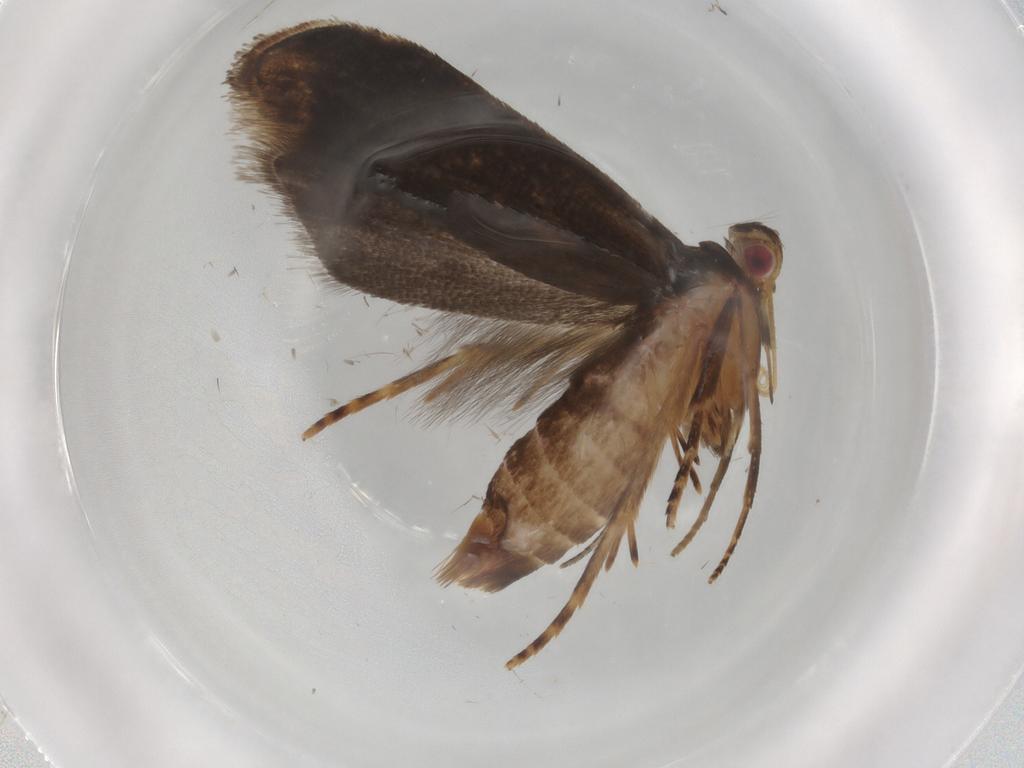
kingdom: Animalia
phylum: Arthropoda
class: Insecta
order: Lepidoptera
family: Gelechiidae
